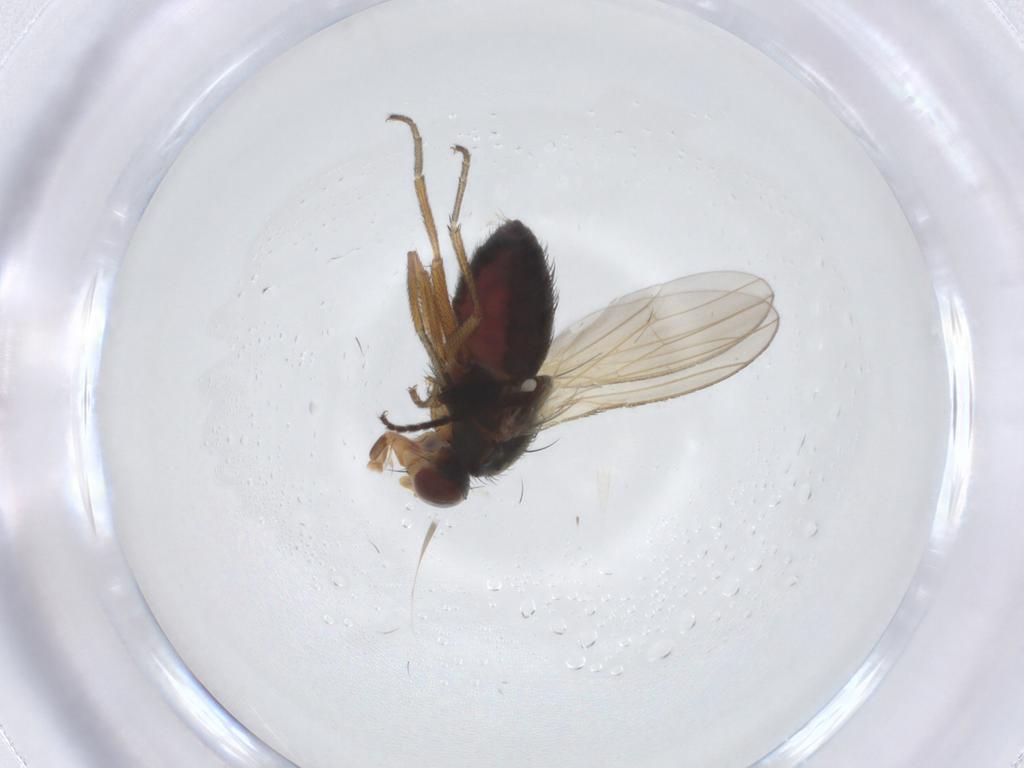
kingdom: Animalia
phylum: Arthropoda
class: Insecta
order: Diptera
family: Heleomyzidae
